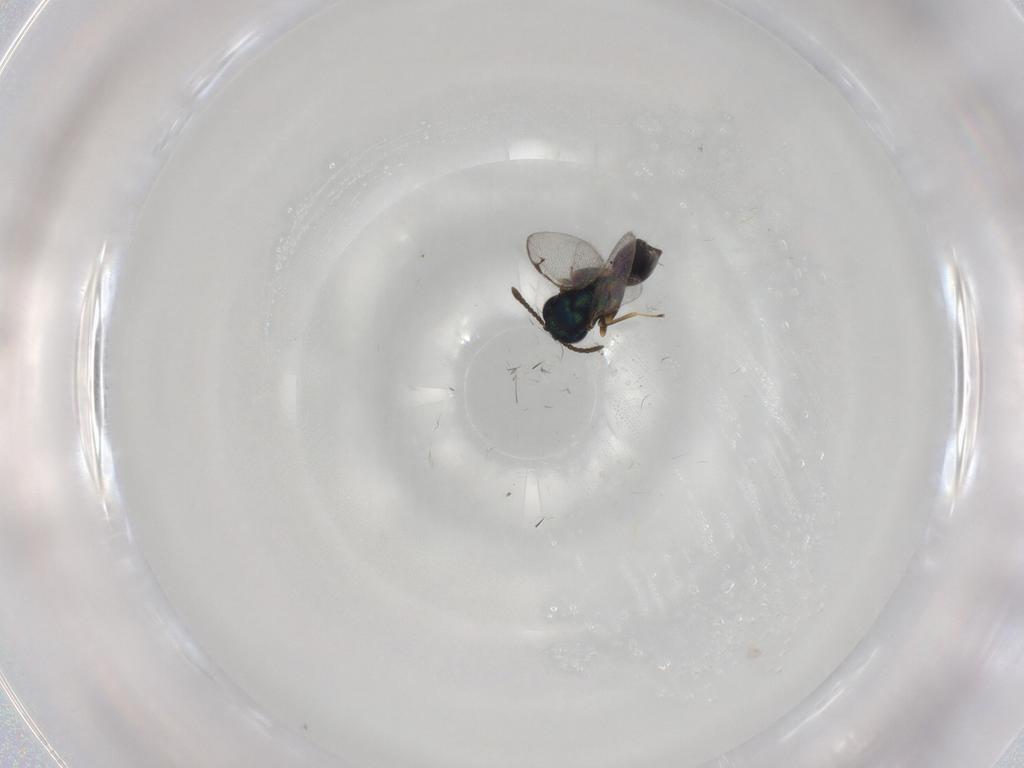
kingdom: Animalia
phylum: Arthropoda
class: Insecta
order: Hymenoptera
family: Pteromalidae
